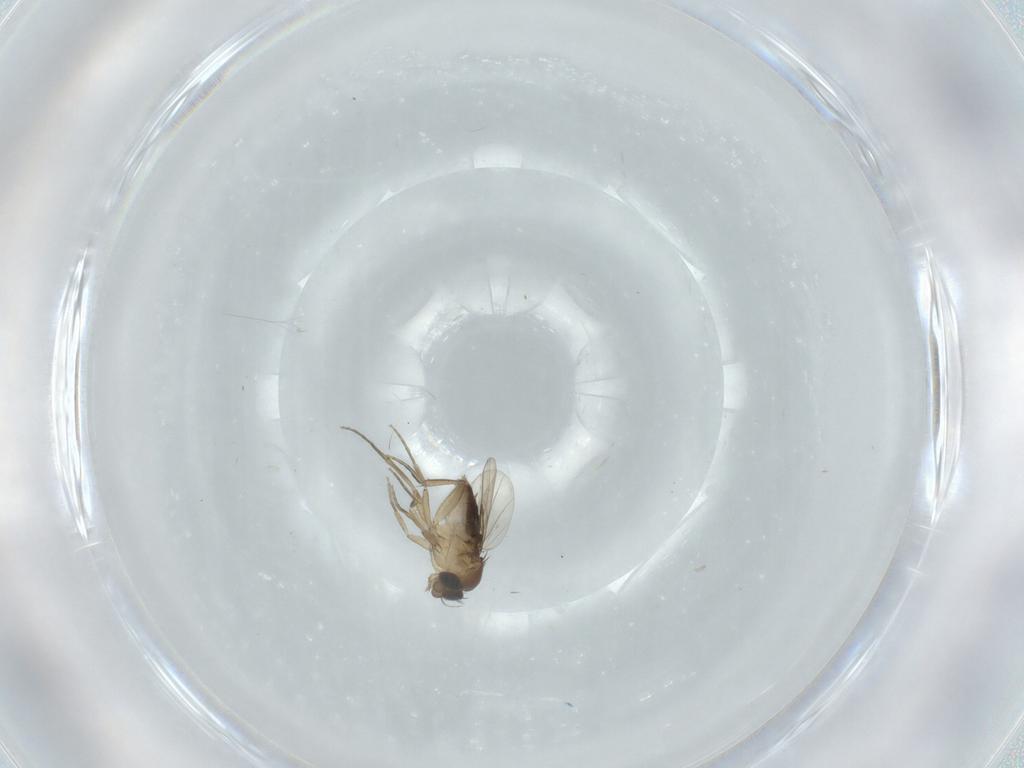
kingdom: Animalia
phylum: Arthropoda
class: Insecta
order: Diptera
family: Phoridae
